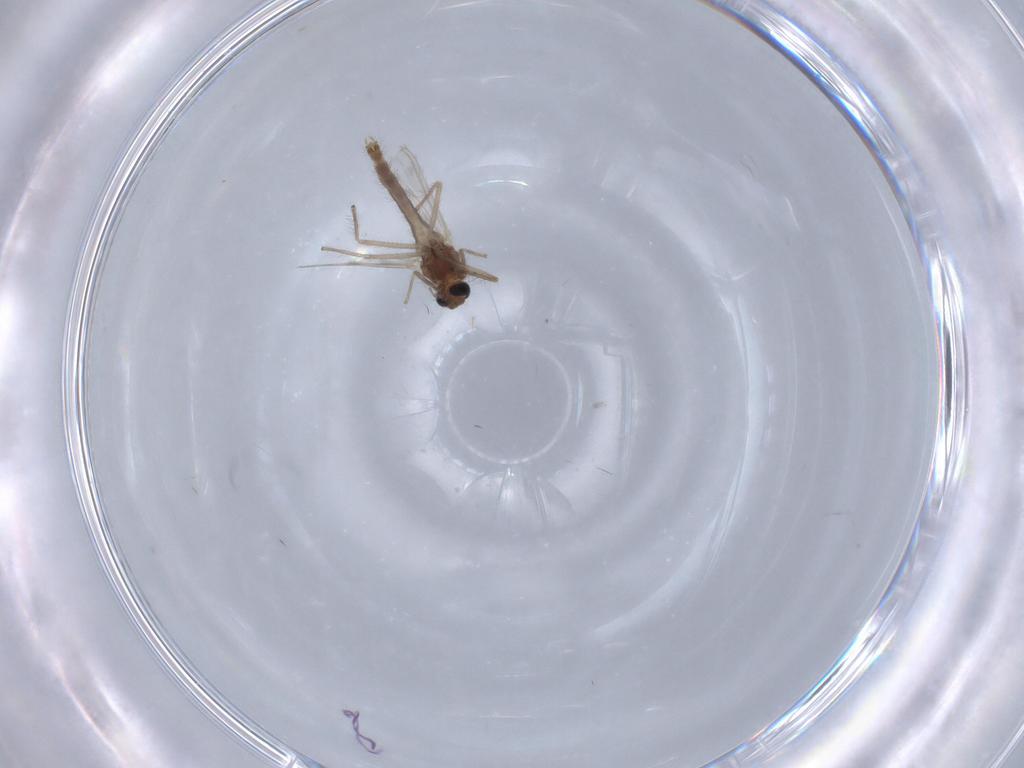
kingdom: Animalia
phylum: Arthropoda
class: Insecta
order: Diptera
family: Chironomidae
